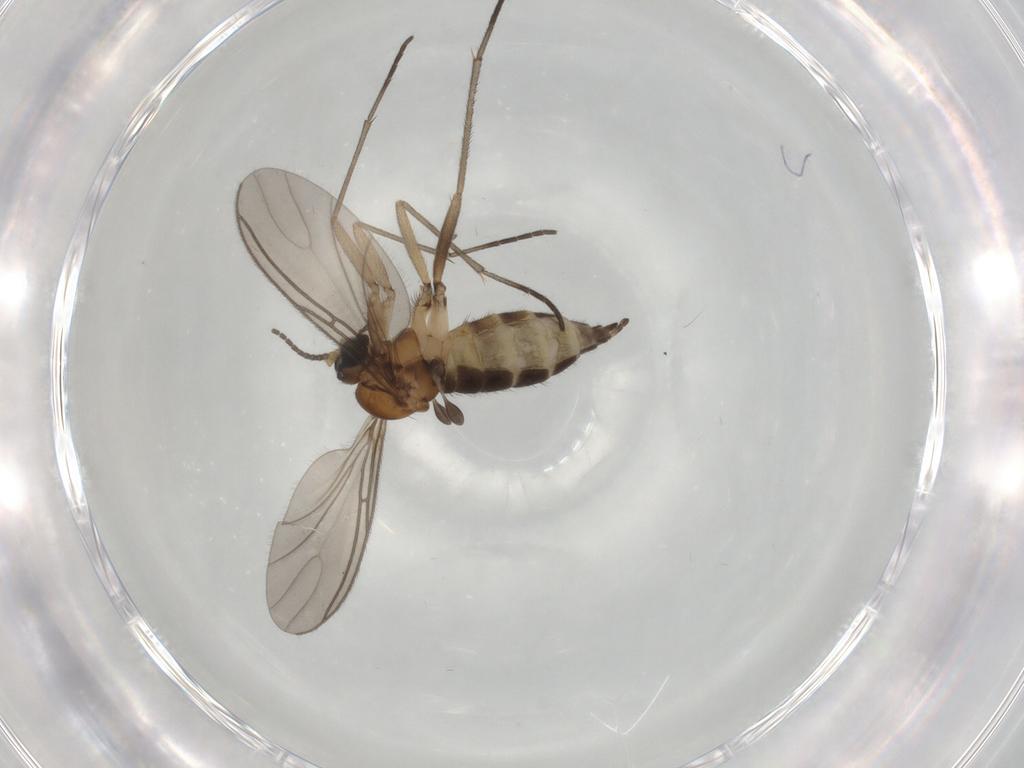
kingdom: Animalia
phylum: Arthropoda
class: Insecta
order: Diptera
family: Sciaridae
